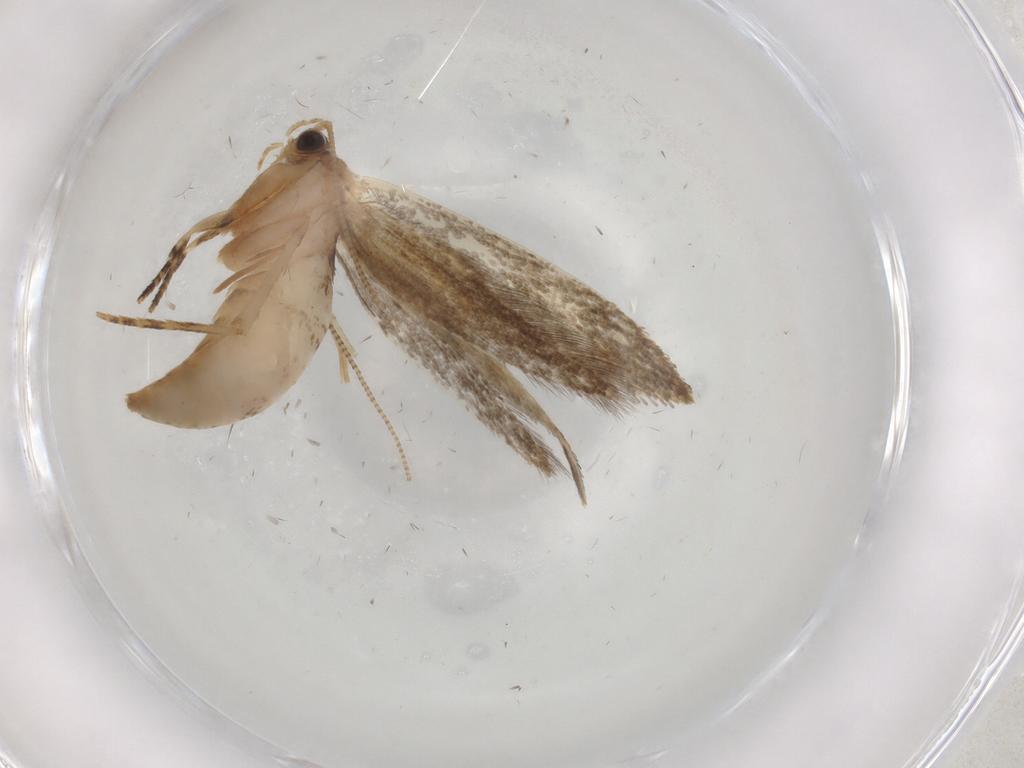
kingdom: Animalia
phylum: Arthropoda
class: Insecta
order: Lepidoptera
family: Tineidae
